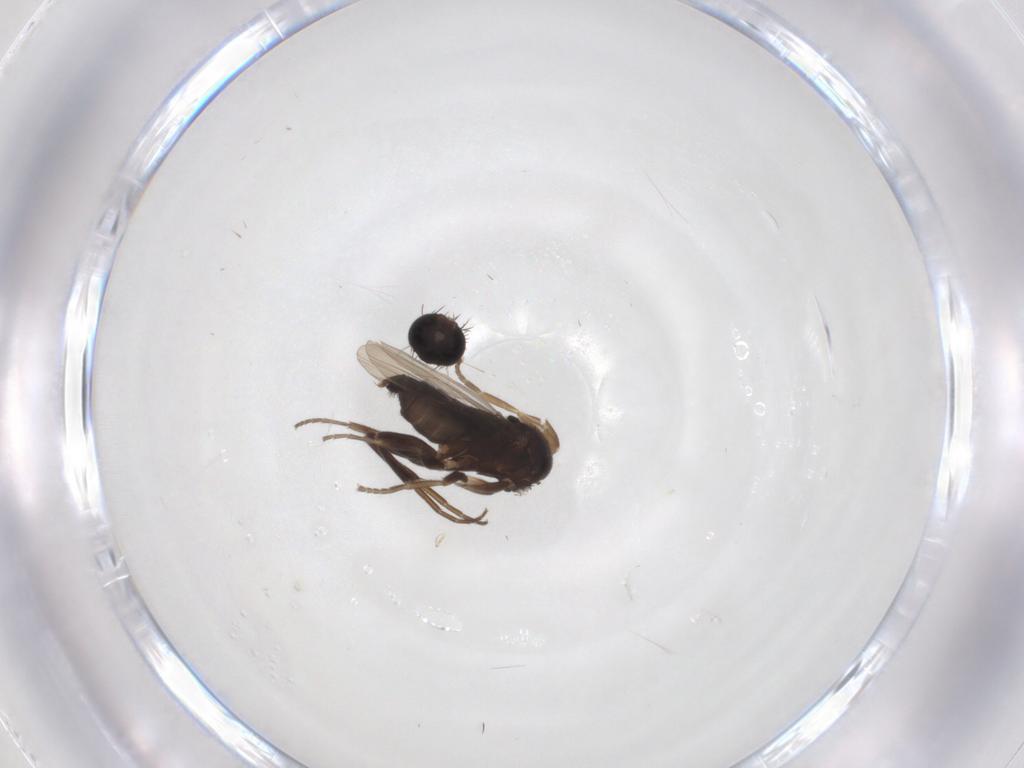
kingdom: Animalia
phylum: Arthropoda
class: Insecta
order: Diptera
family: Phoridae
